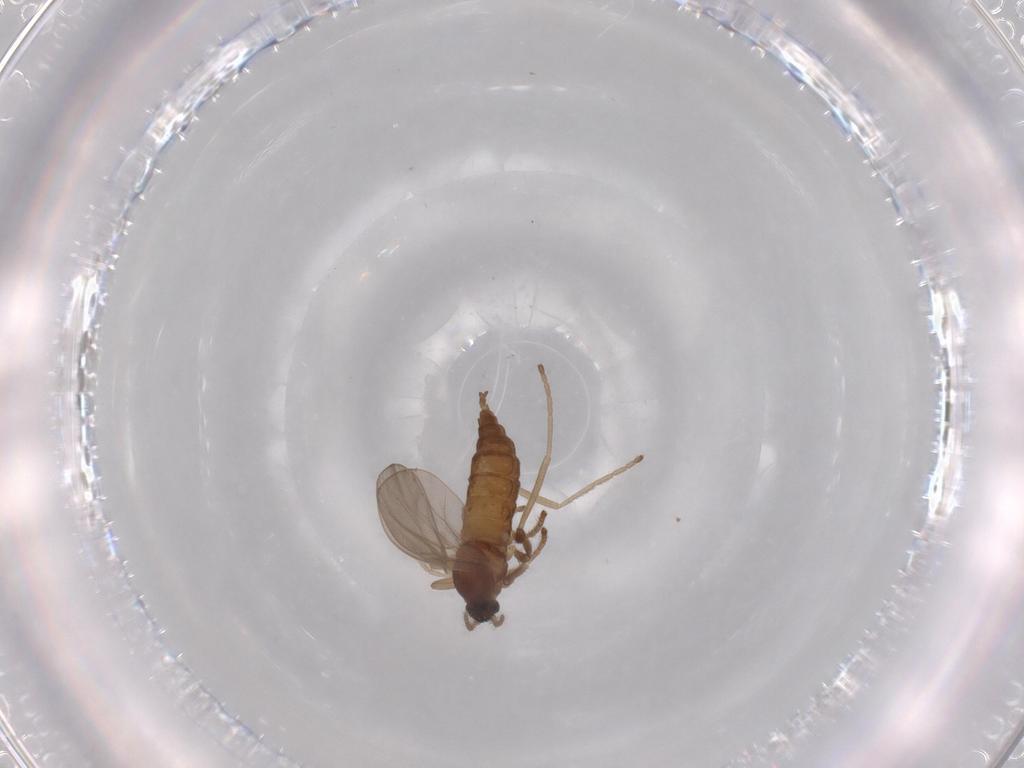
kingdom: Animalia
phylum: Arthropoda
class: Insecta
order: Diptera
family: Cecidomyiidae
